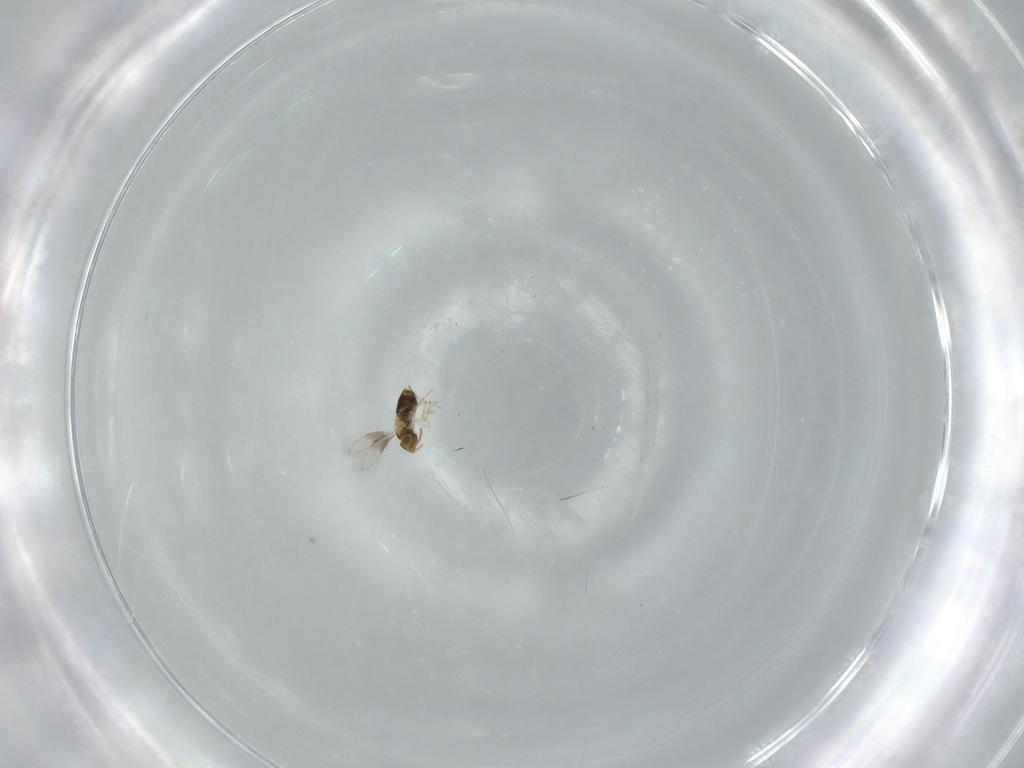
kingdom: Animalia
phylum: Arthropoda
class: Insecta
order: Hymenoptera
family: Aphelinidae
